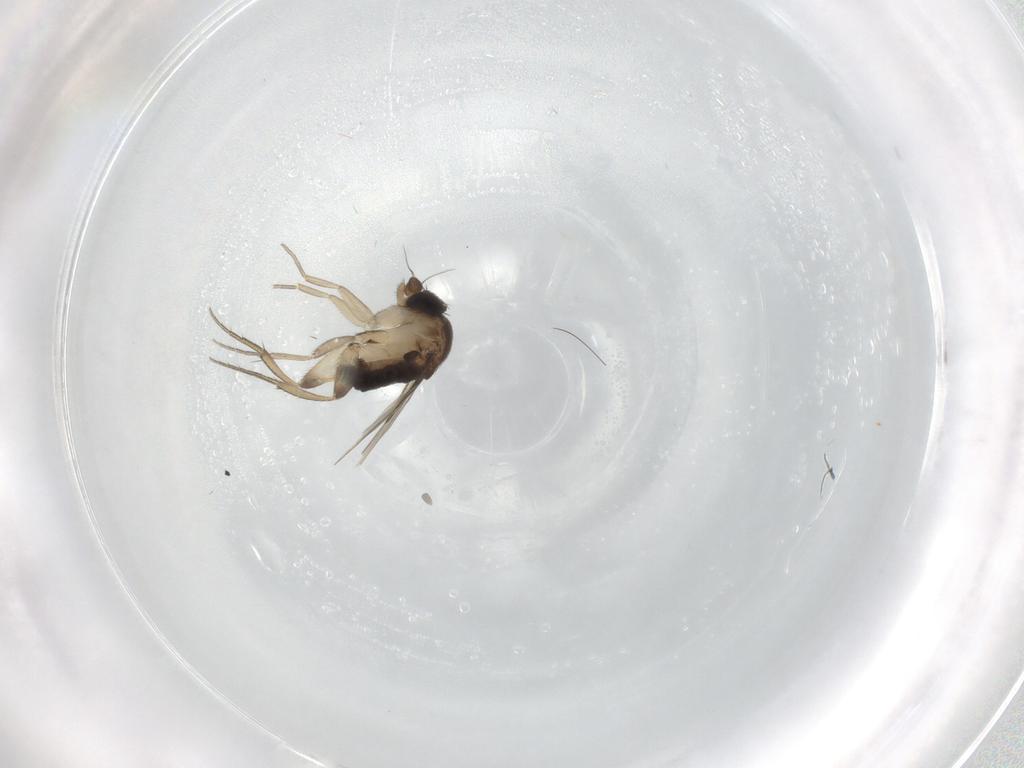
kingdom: Animalia
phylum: Arthropoda
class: Insecta
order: Diptera
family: Phoridae
